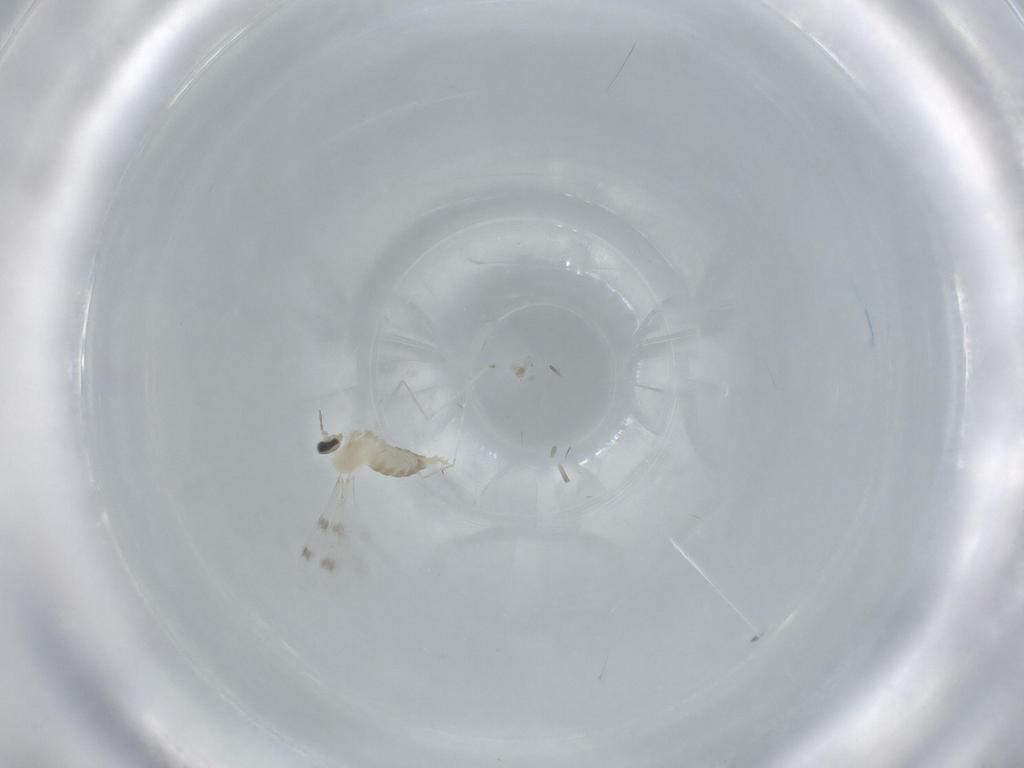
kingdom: Animalia
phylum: Arthropoda
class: Insecta
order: Diptera
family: Cecidomyiidae
